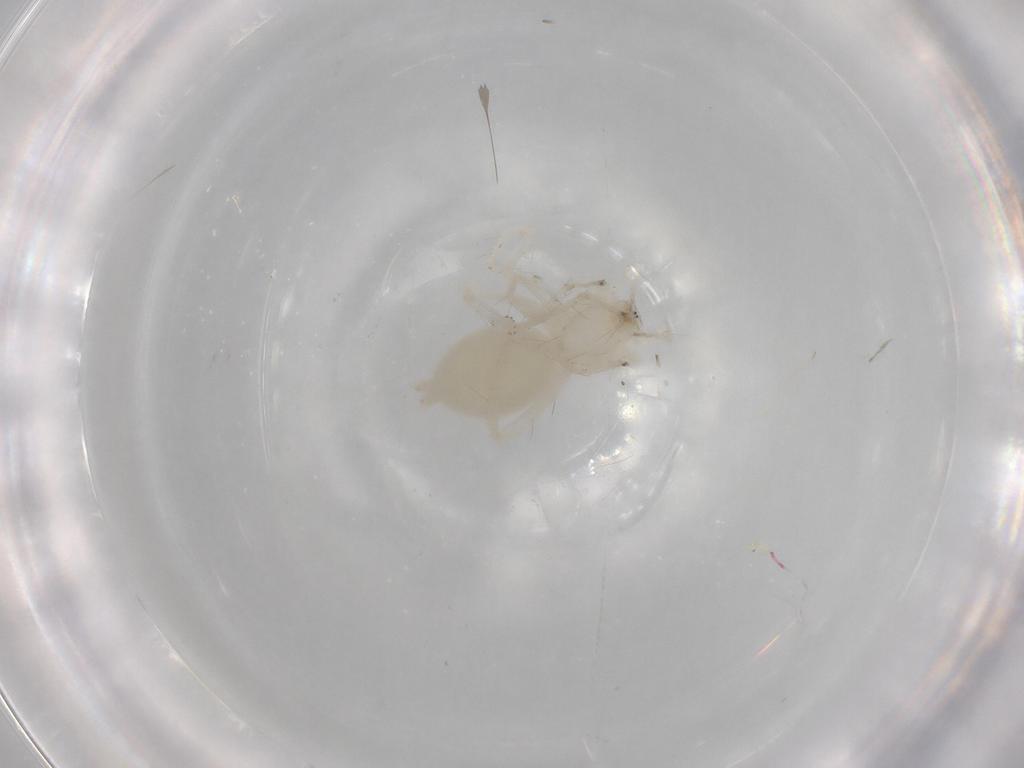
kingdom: Animalia
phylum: Arthropoda
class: Arachnida
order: Araneae
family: Anyphaenidae
